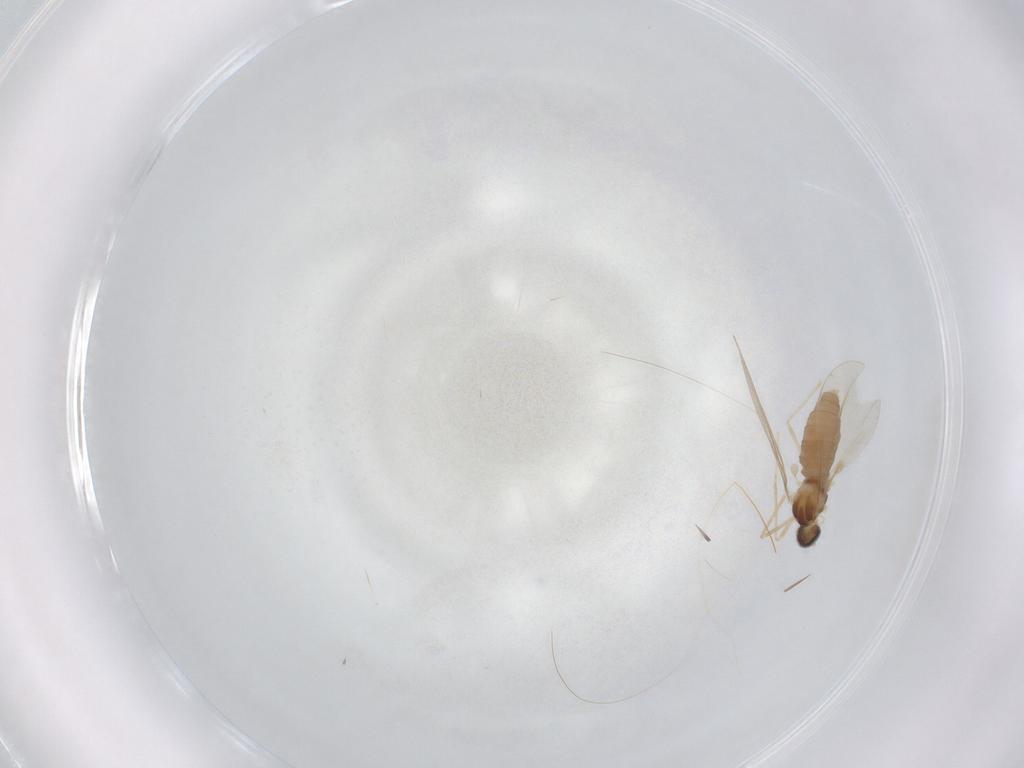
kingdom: Animalia
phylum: Arthropoda
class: Insecta
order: Diptera
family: Cecidomyiidae
